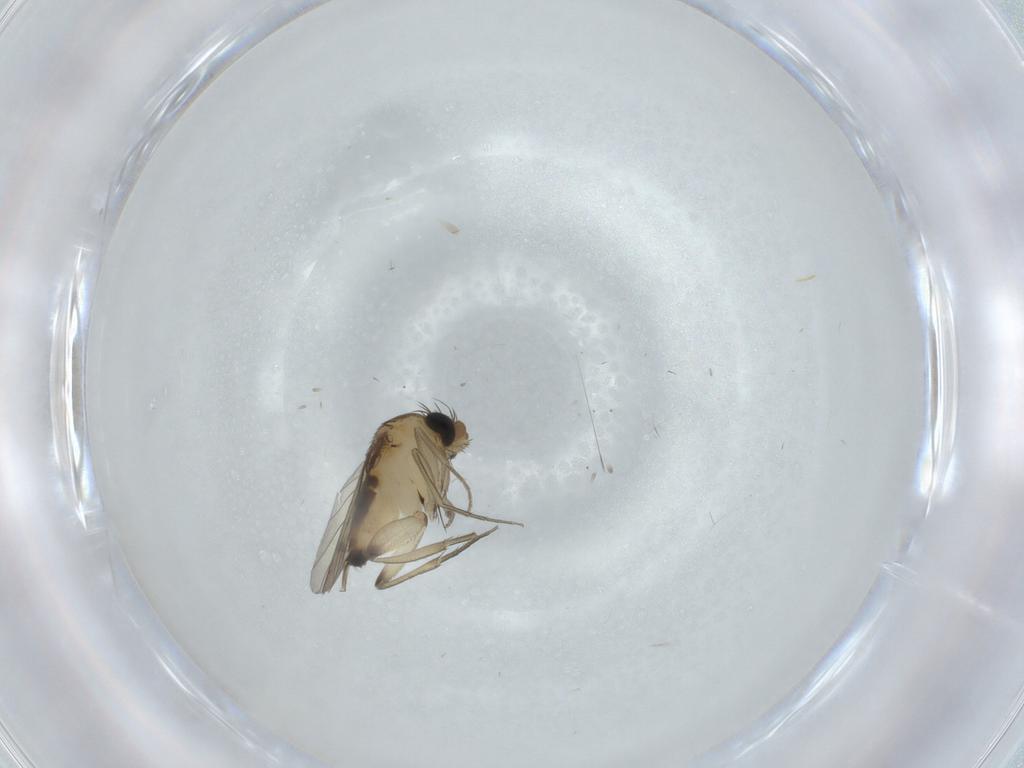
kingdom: Animalia
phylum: Arthropoda
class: Insecta
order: Diptera
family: Phoridae
